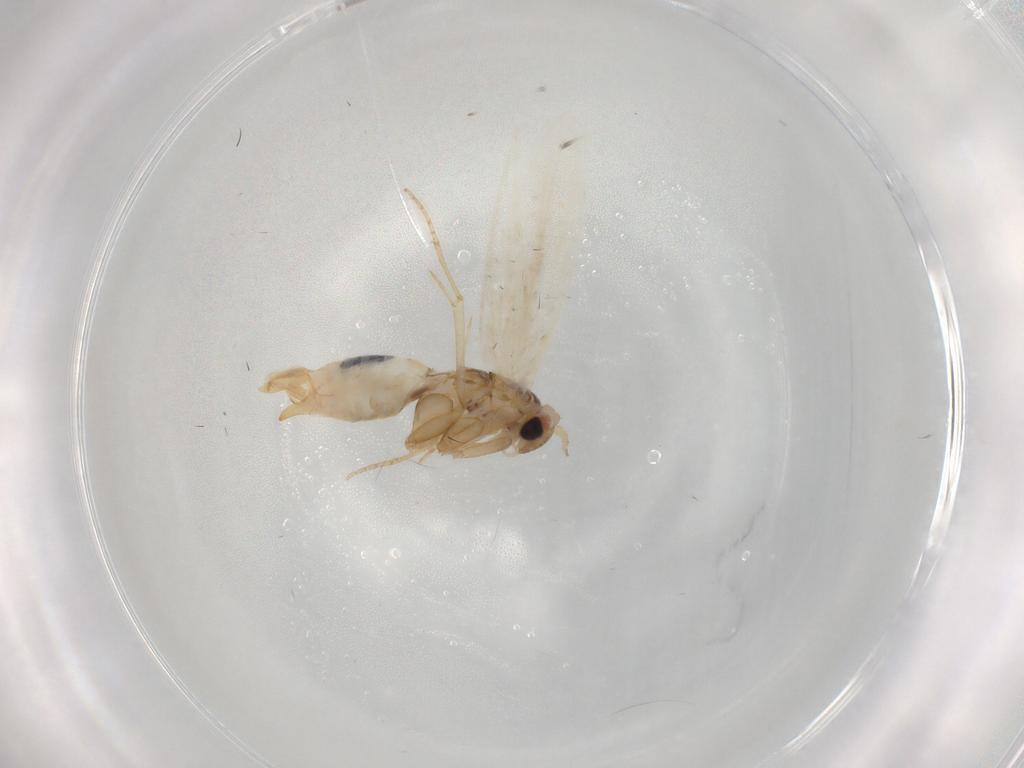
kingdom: Animalia
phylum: Arthropoda
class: Insecta
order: Lepidoptera
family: Bucculatricidae
